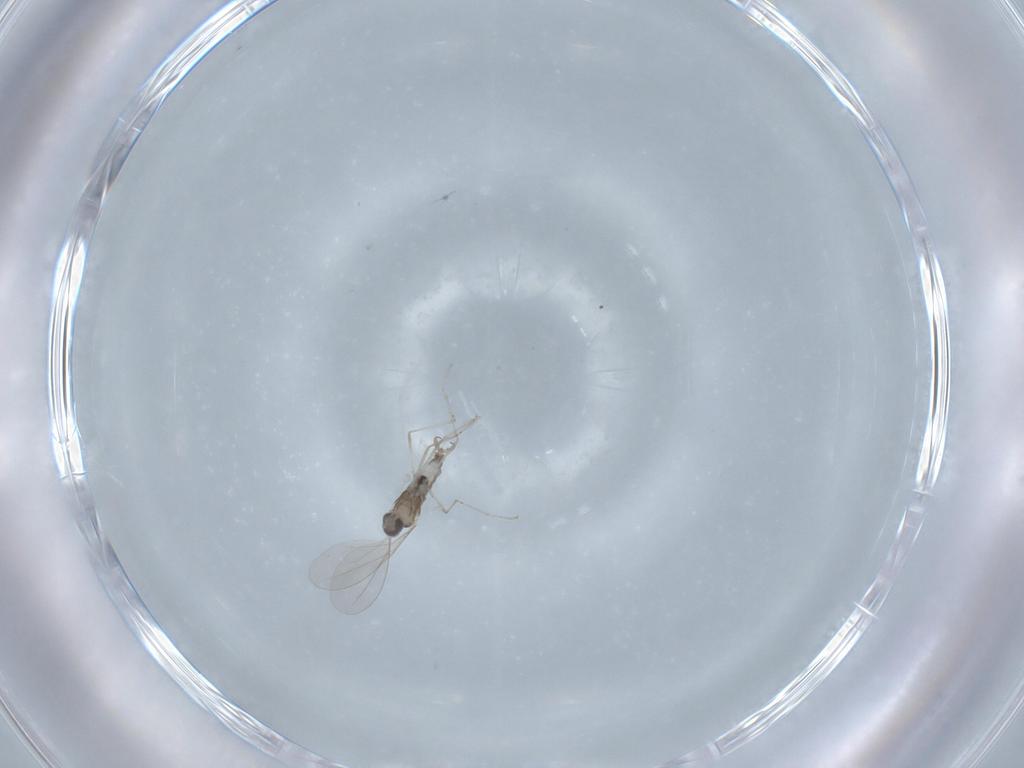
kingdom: Animalia
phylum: Arthropoda
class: Insecta
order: Diptera
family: Cecidomyiidae
